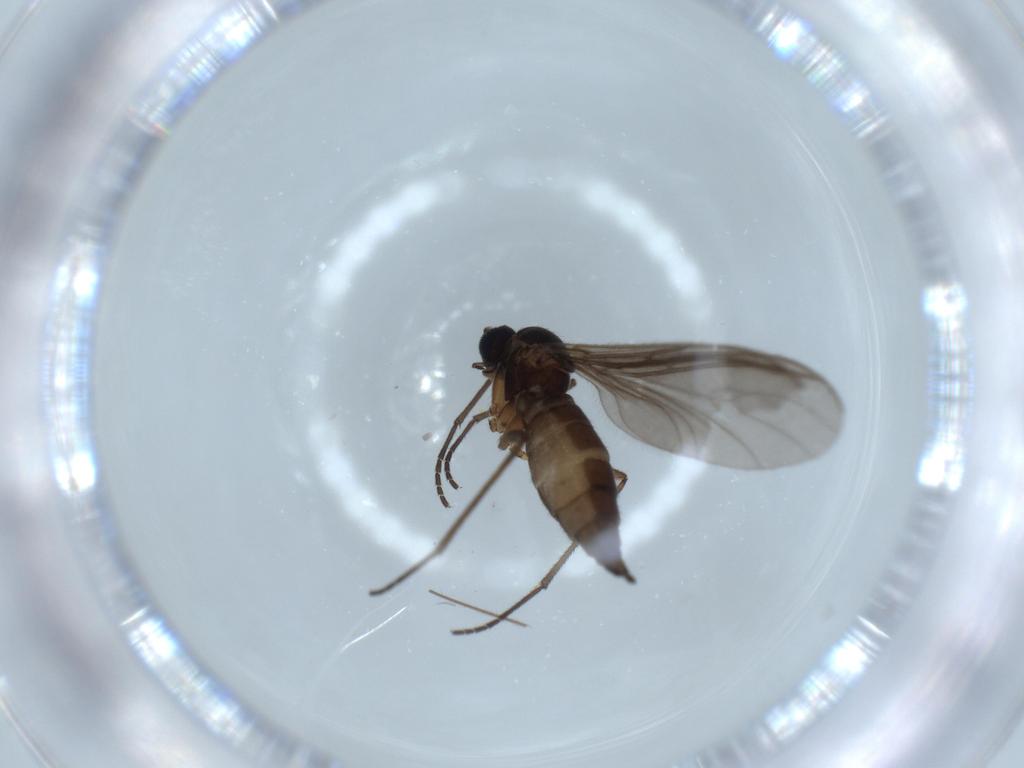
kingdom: Animalia
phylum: Arthropoda
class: Insecta
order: Diptera
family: Sciaridae
